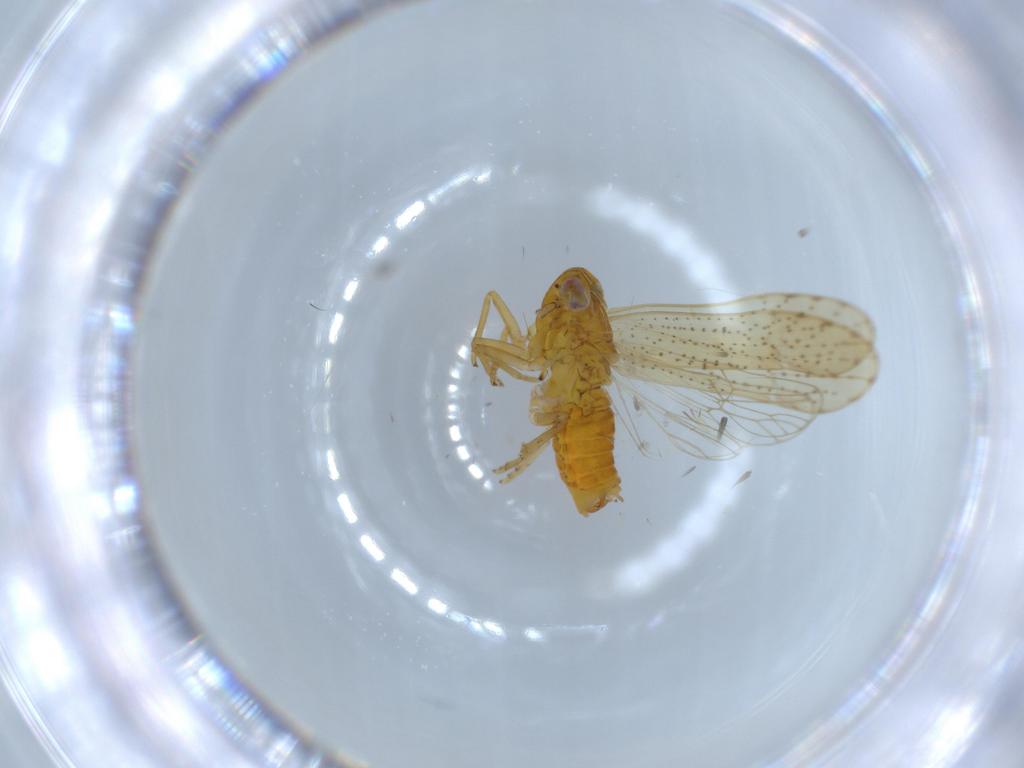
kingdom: Animalia
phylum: Arthropoda
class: Insecta
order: Hemiptera
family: Delphacidae
